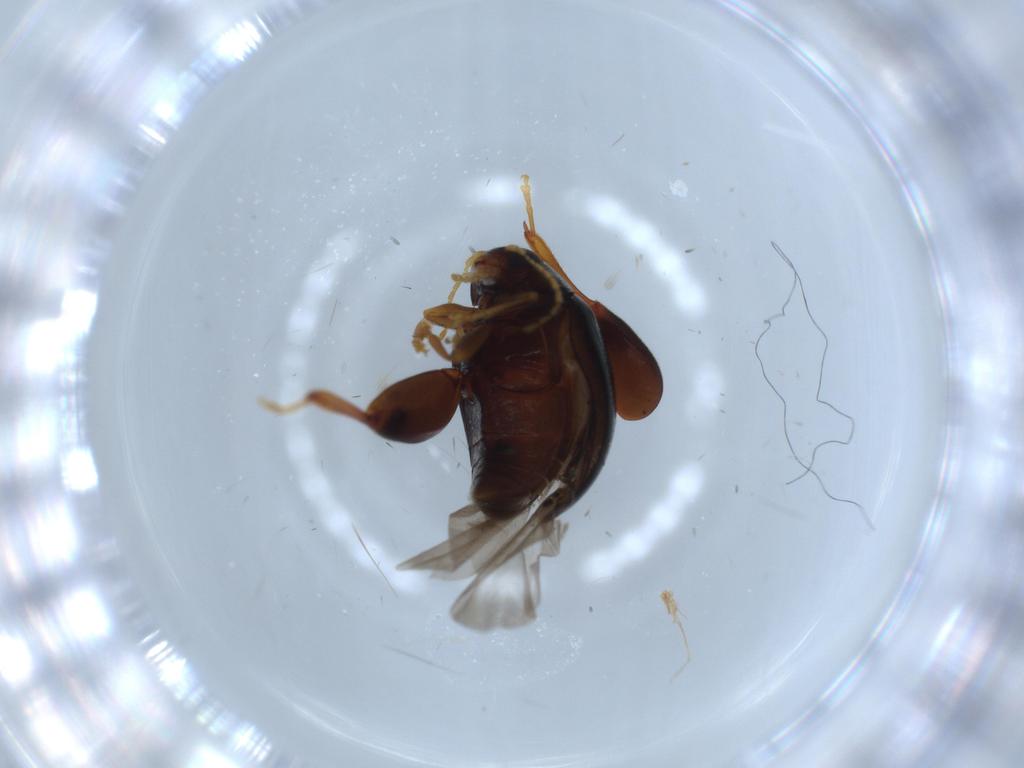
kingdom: Animalia
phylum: Arthropoda
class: Insecta
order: Coleoptera
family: Chrysomelidae
